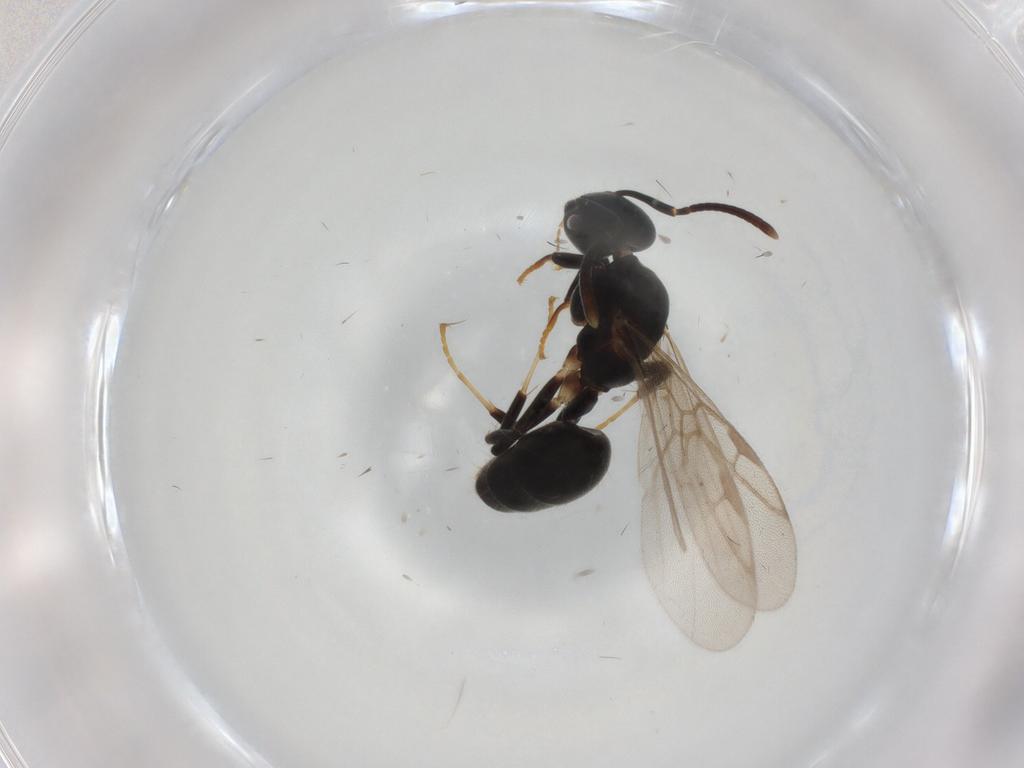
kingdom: Animalia
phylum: Arthropoda
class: Insecta
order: Hymenoptera
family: Formicidae
